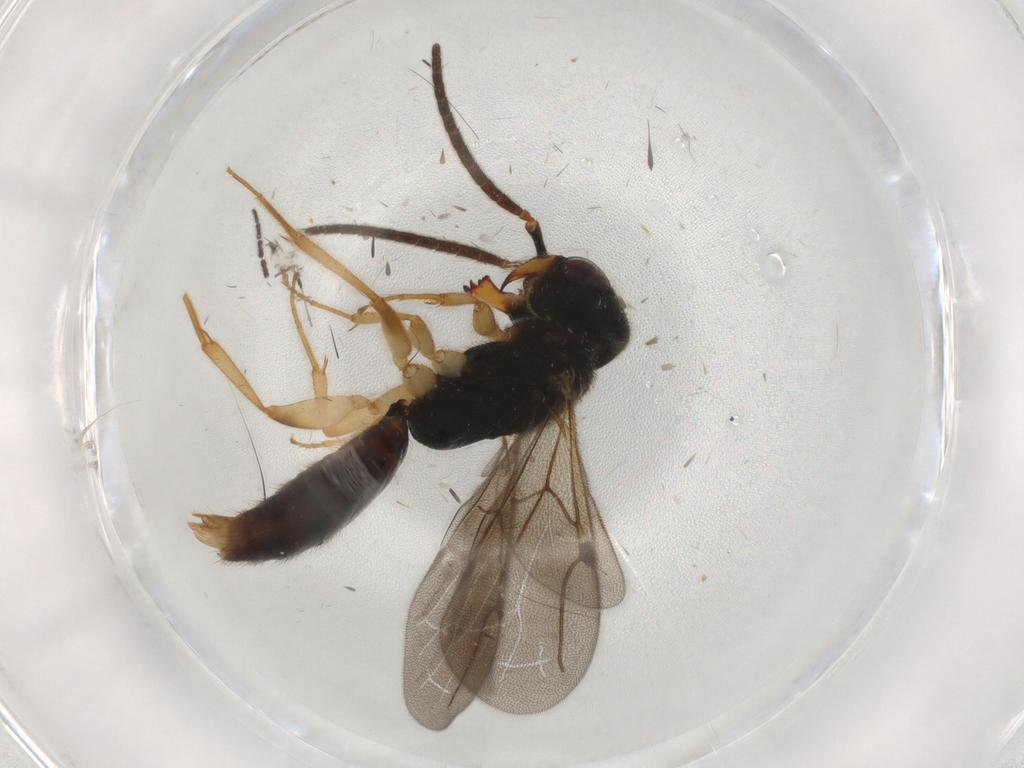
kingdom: Animalia
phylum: Arthropoda
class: Insecta
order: Hymenoptera
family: Bethylidae
